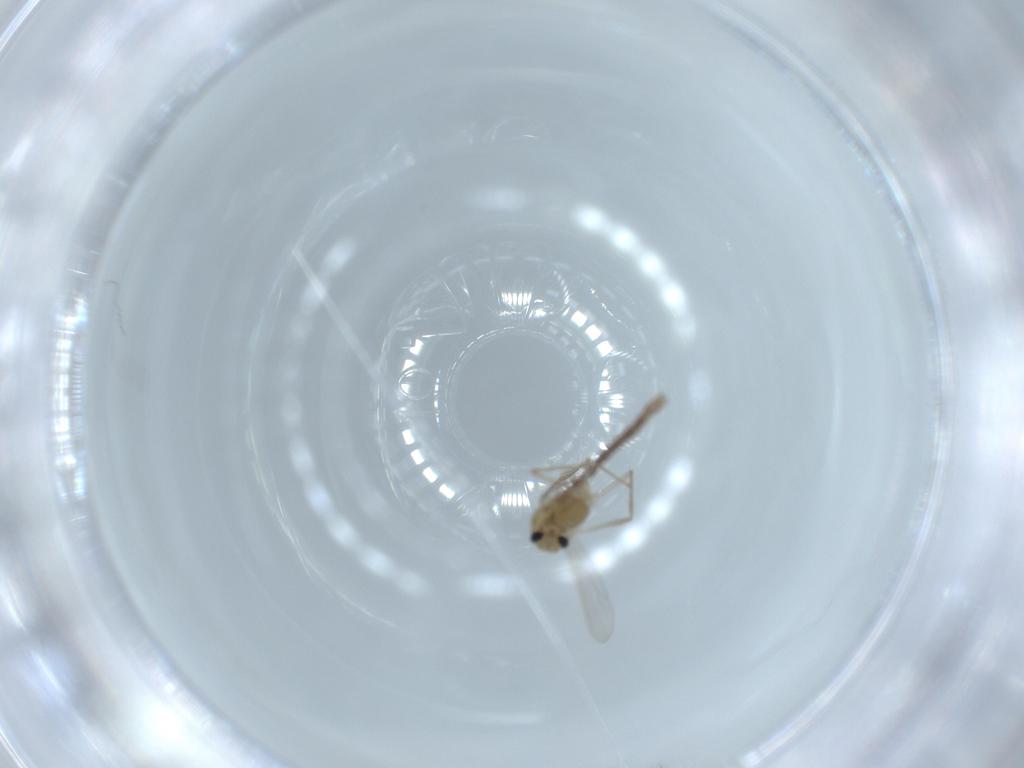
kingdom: Animalia
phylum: Arthropoda
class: Insecta
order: Diptera
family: Chironomidae
